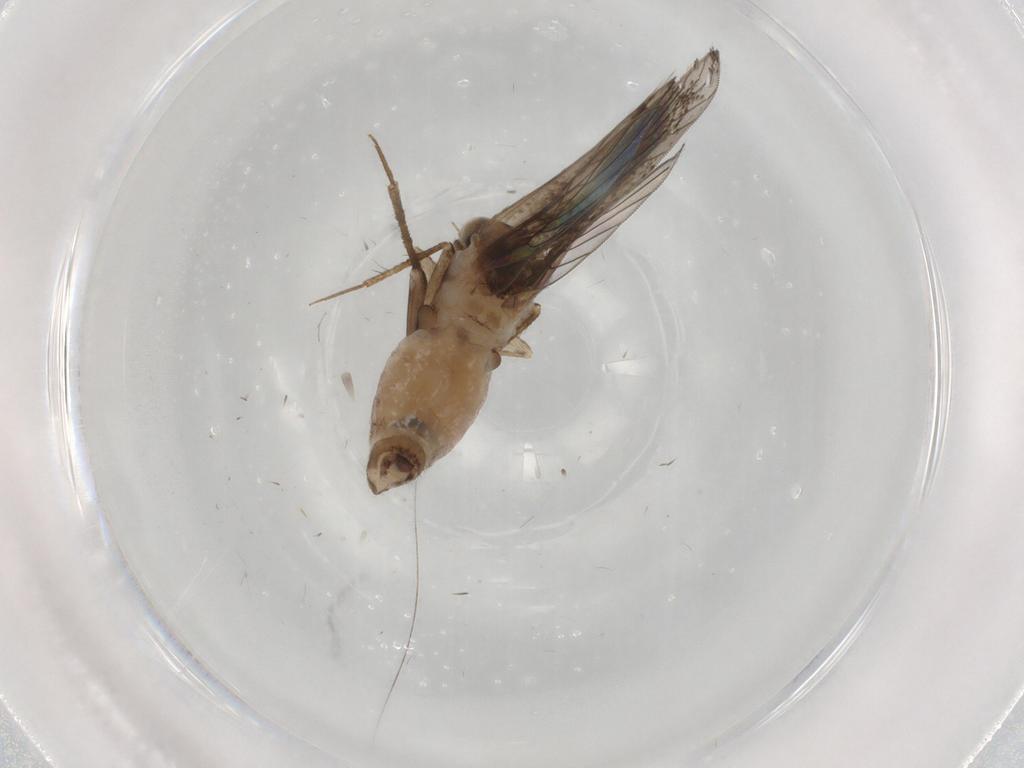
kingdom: Animalia
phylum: Arthropoda
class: Insecta
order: Psocodea
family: Lepidopsocidae
